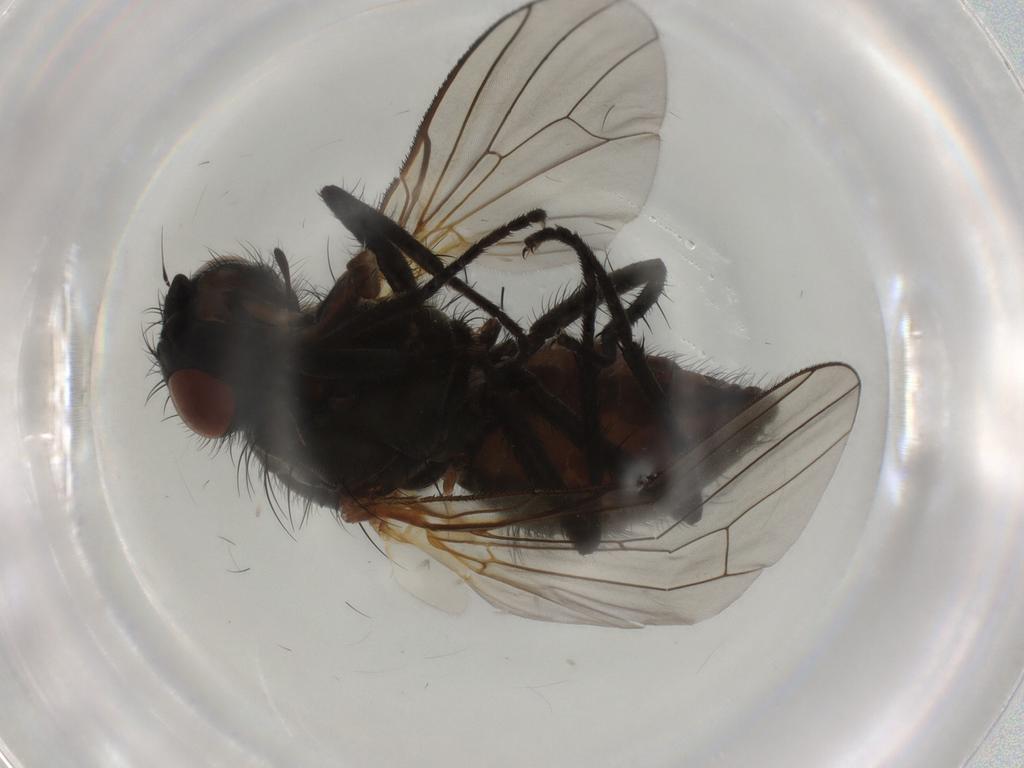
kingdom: Animalia
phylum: Arthropoda
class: Insecta
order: Diptera
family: Anthomyiidae
